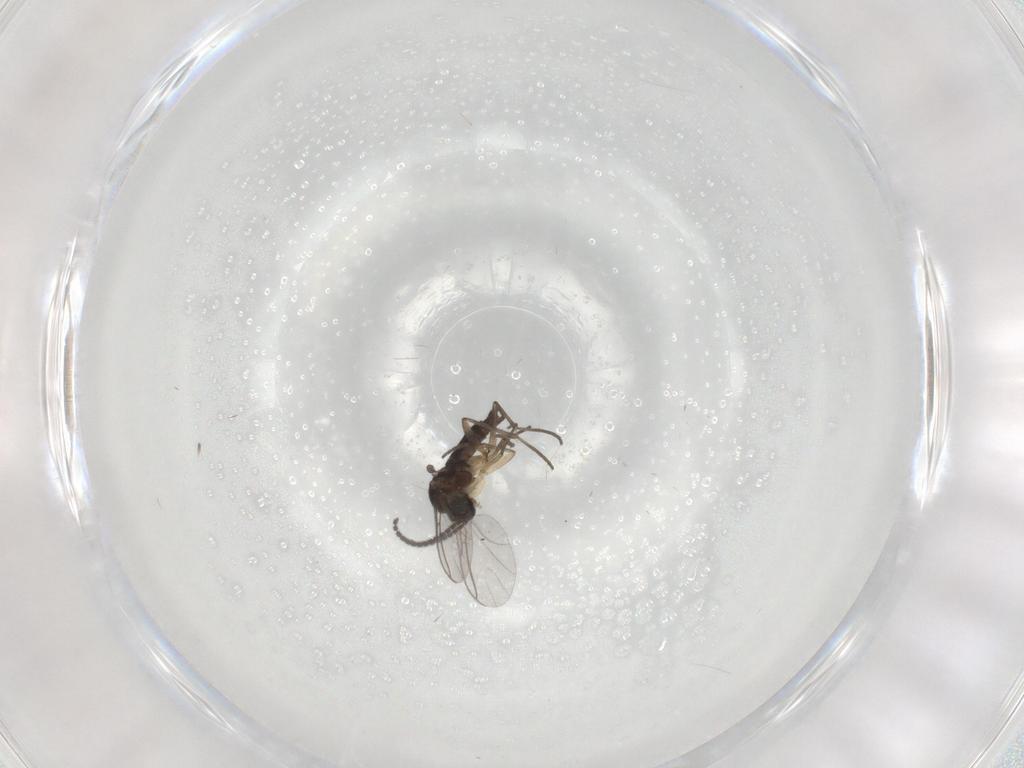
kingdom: Animalia
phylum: Arthropoda
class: Insecta
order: Diptera
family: Sciaridae
